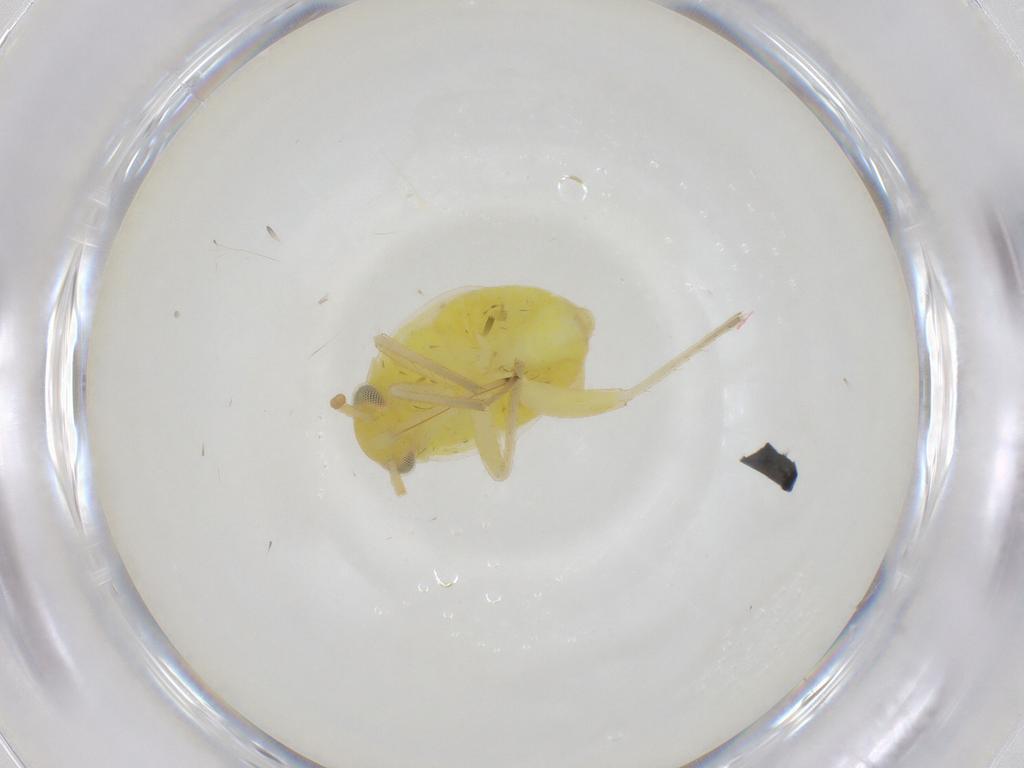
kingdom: Animalia
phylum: Arthropoda
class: Insecta
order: Hemiptera
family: Miridae
